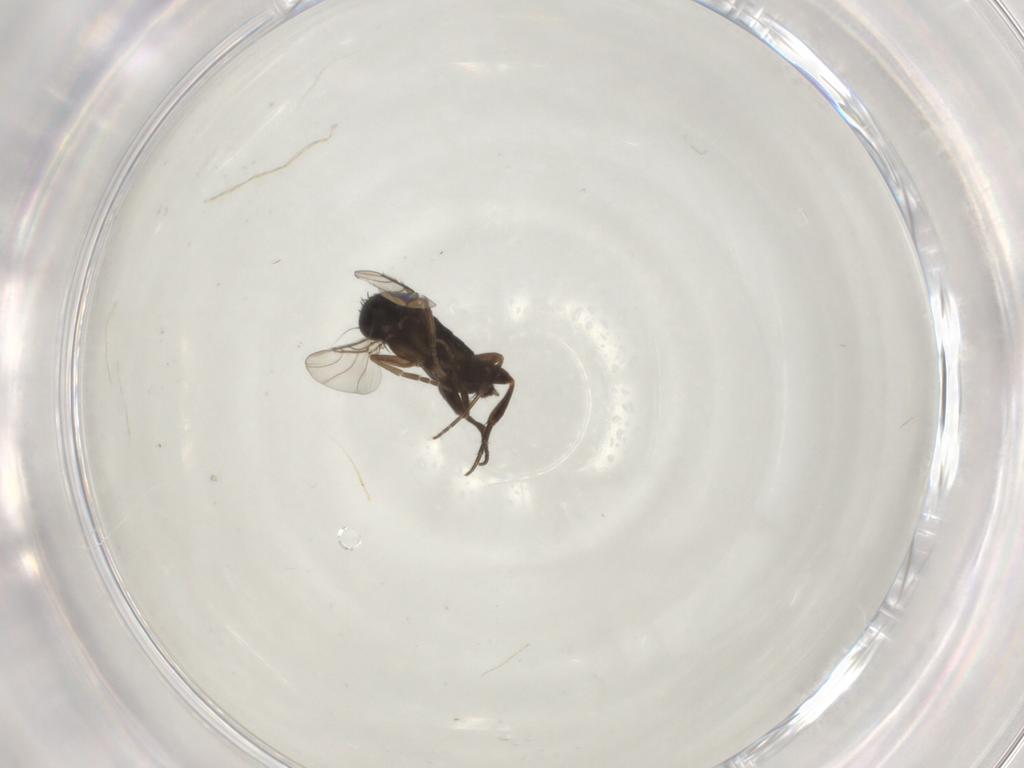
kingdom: Animalia
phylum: Arthropoda
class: Insecta
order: Diptera
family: Phoridae
